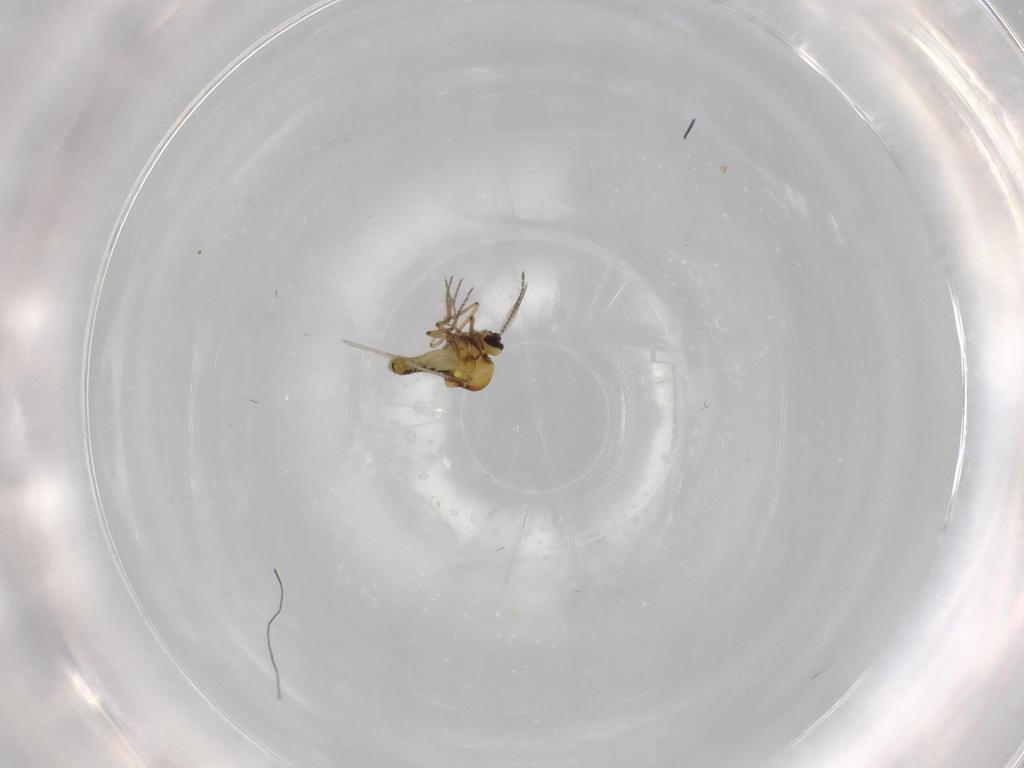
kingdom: Animalia
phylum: Arthropoda
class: Insecta
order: Diptera
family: Ceratopogonidae
